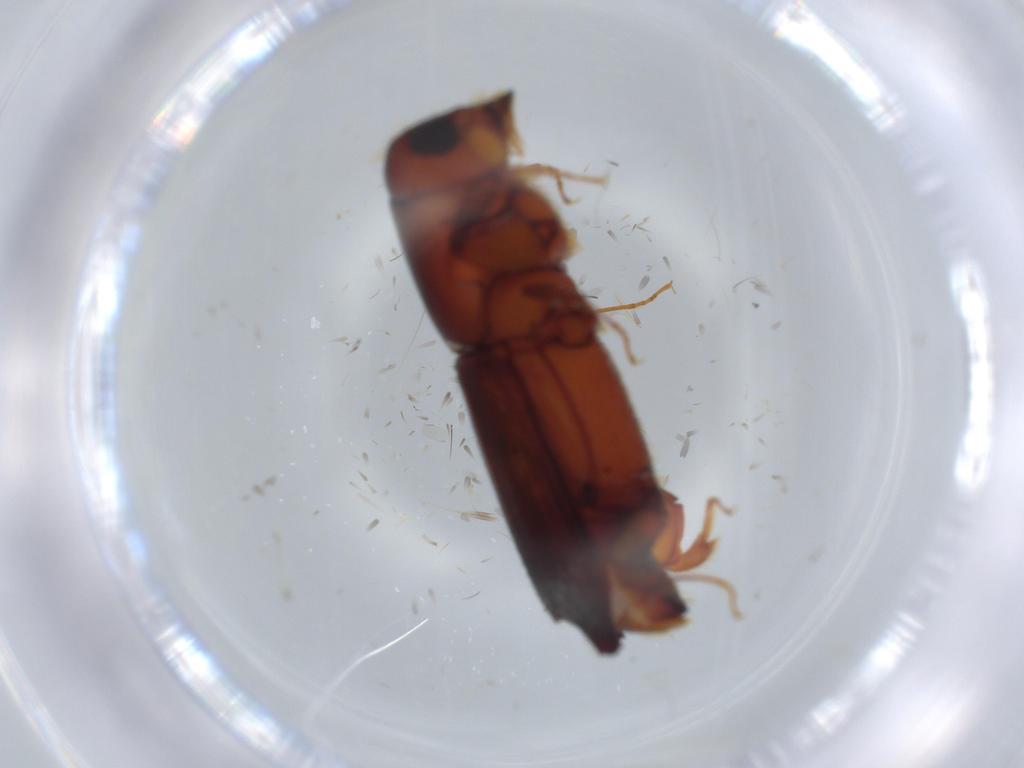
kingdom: Animalia
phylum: Arthropoda
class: Insecta
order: Coleoptera
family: Curculionidae
